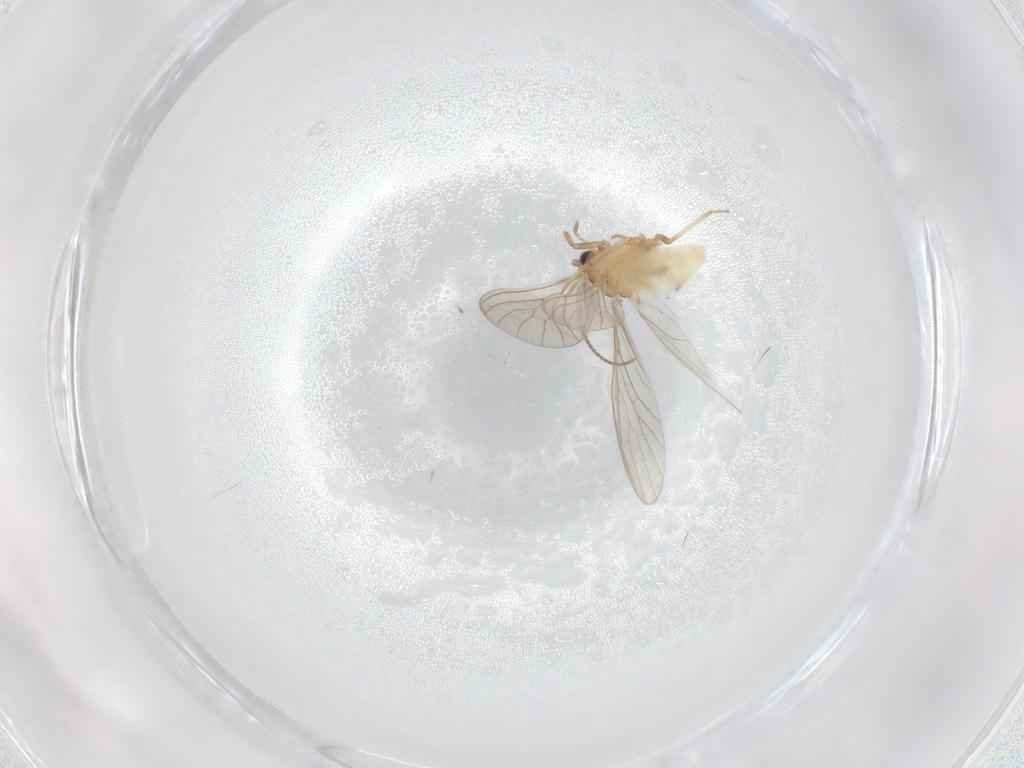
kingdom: Animalia
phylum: Arthropoda
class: Insecta
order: Neuroptera
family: Coniopterygidae
